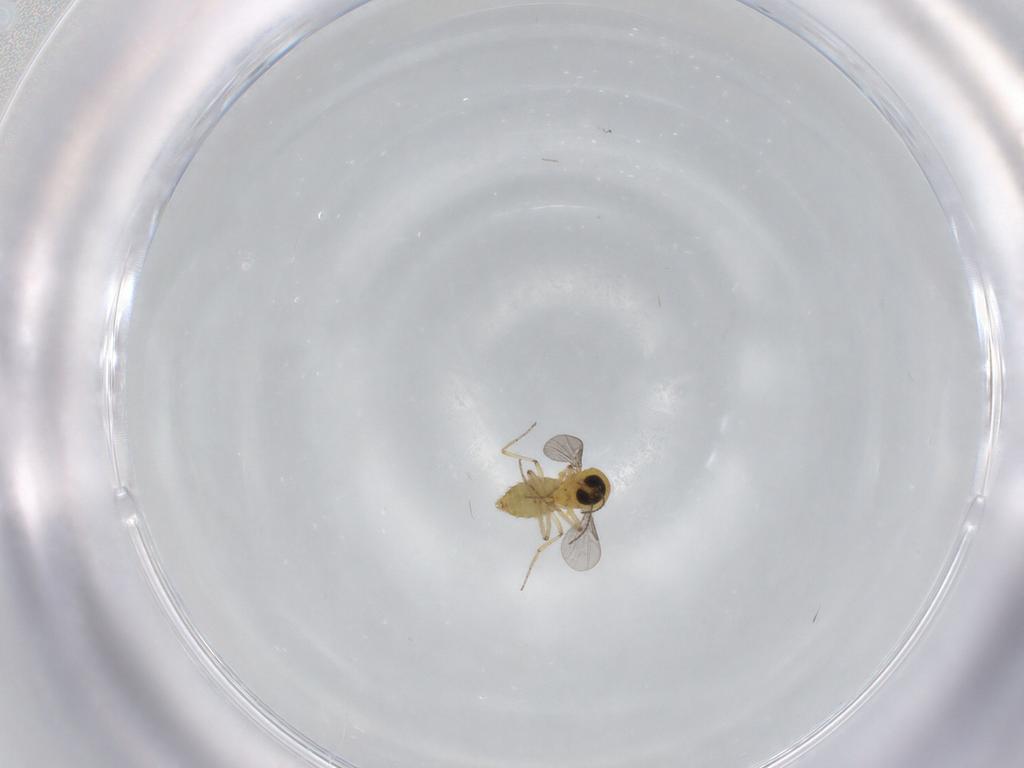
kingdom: Animalia
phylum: Arthropoda
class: Insecta
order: Diptera
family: Ceratopogonidae
